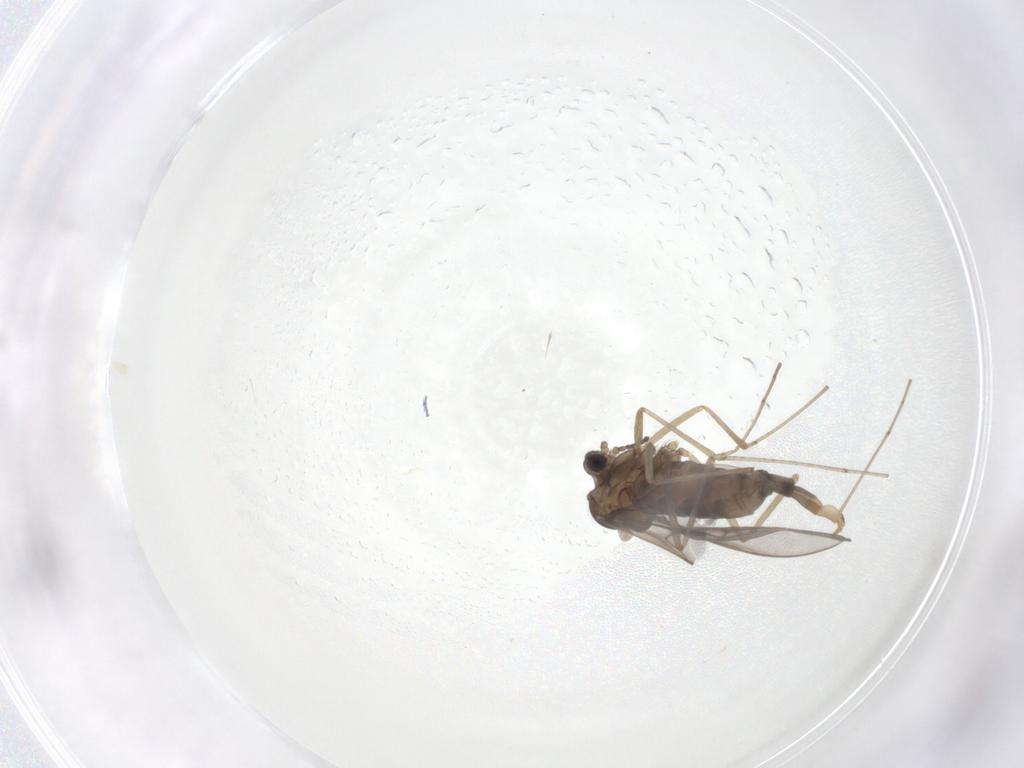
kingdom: Animalia
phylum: Arthropoda
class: Insecta
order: Diptera
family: Cecidomyiidae
